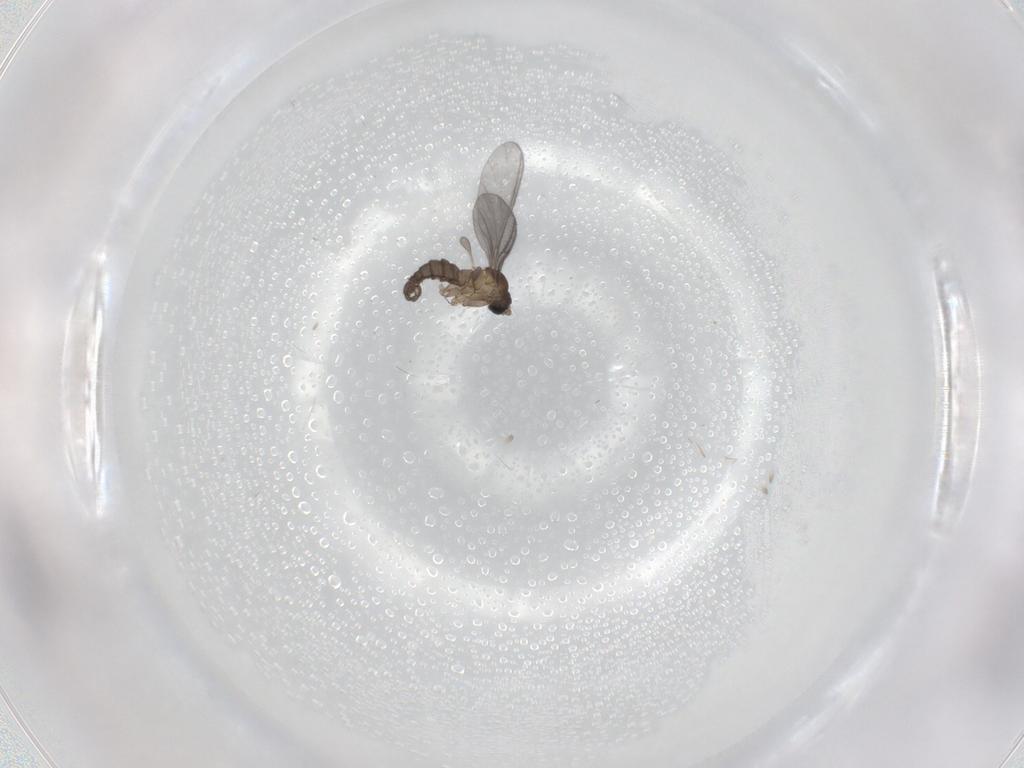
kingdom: Animalia
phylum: Arthropoda
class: Insecta
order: Diptera
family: Sciaridae
